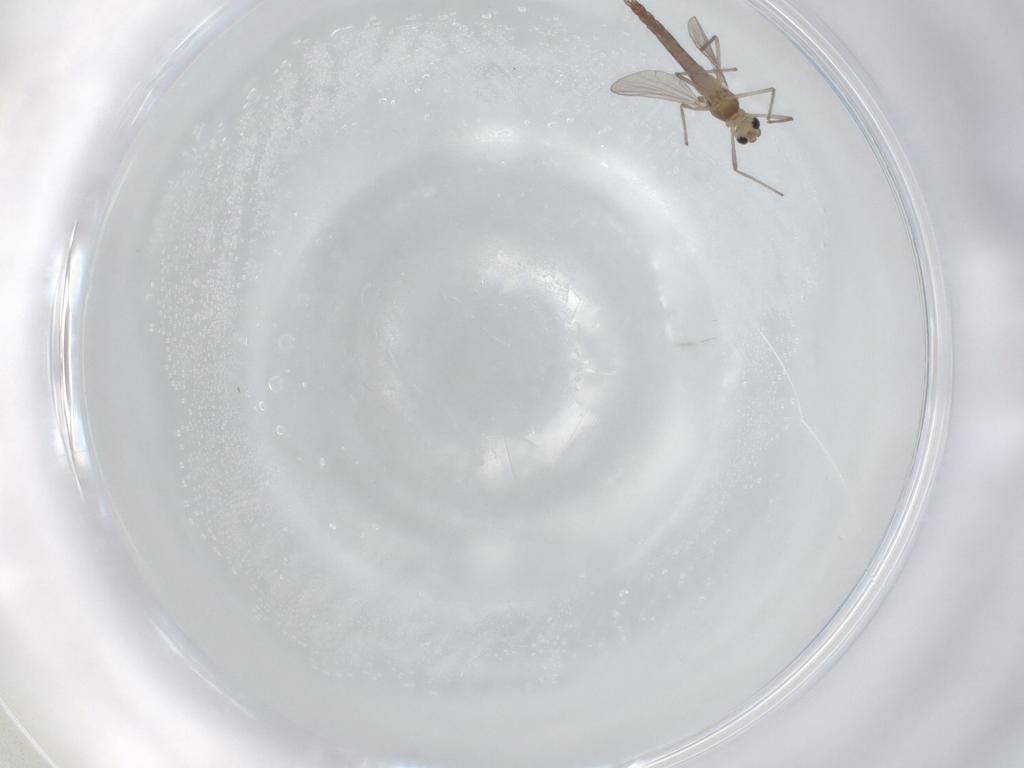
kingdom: Animalia
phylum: Arthropoda
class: Insecta
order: Diptera
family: Chironomidae
